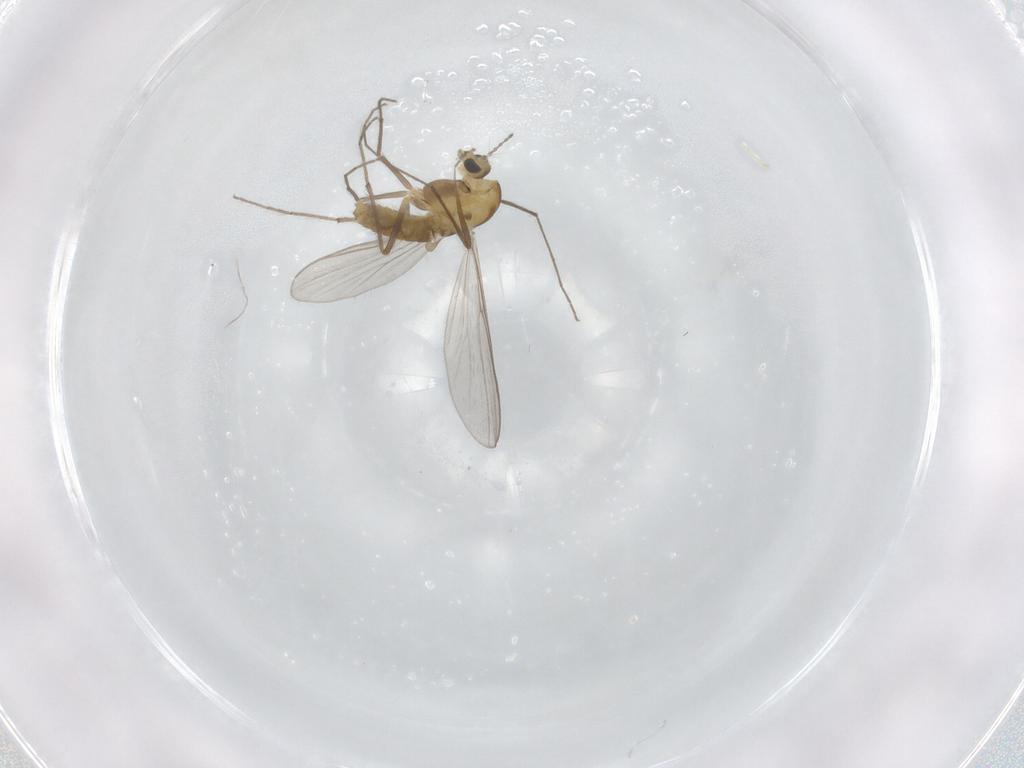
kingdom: Animalia
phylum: Arthropoda
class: Insecta
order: Diptera
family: Chironomidae
